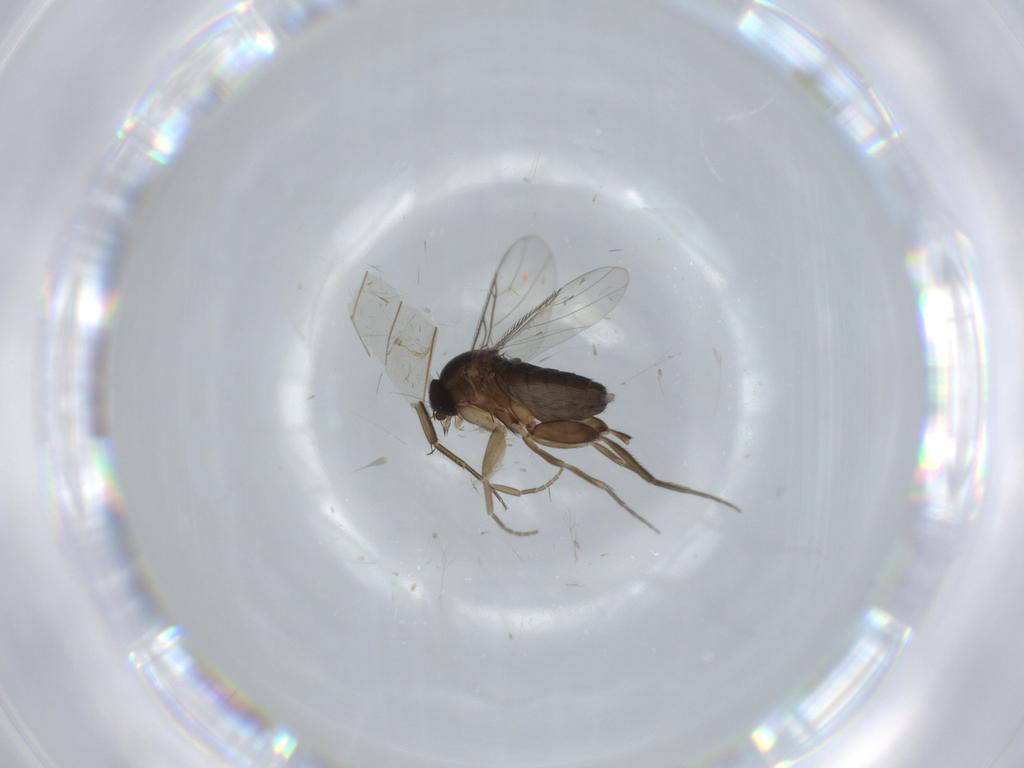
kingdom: Animalia
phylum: Arthropoda
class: Insecta
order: Diptera
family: Phoridae
